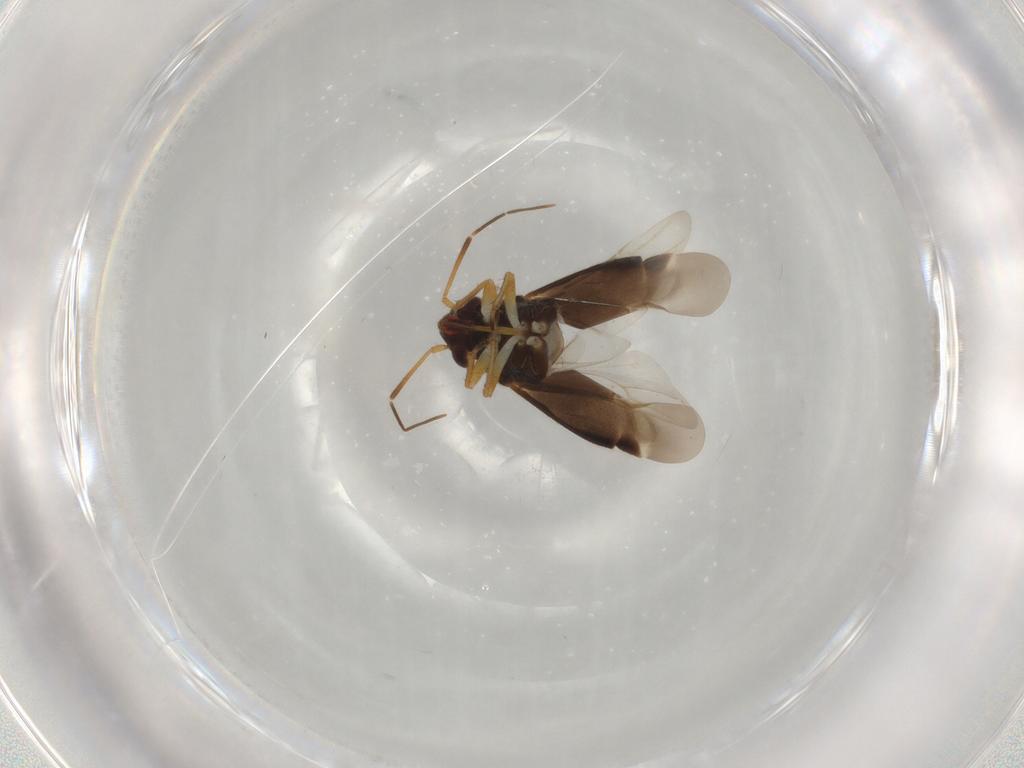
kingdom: Animalia
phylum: Arthropoda
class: Insecta
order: Hemiptera
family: Miridae
